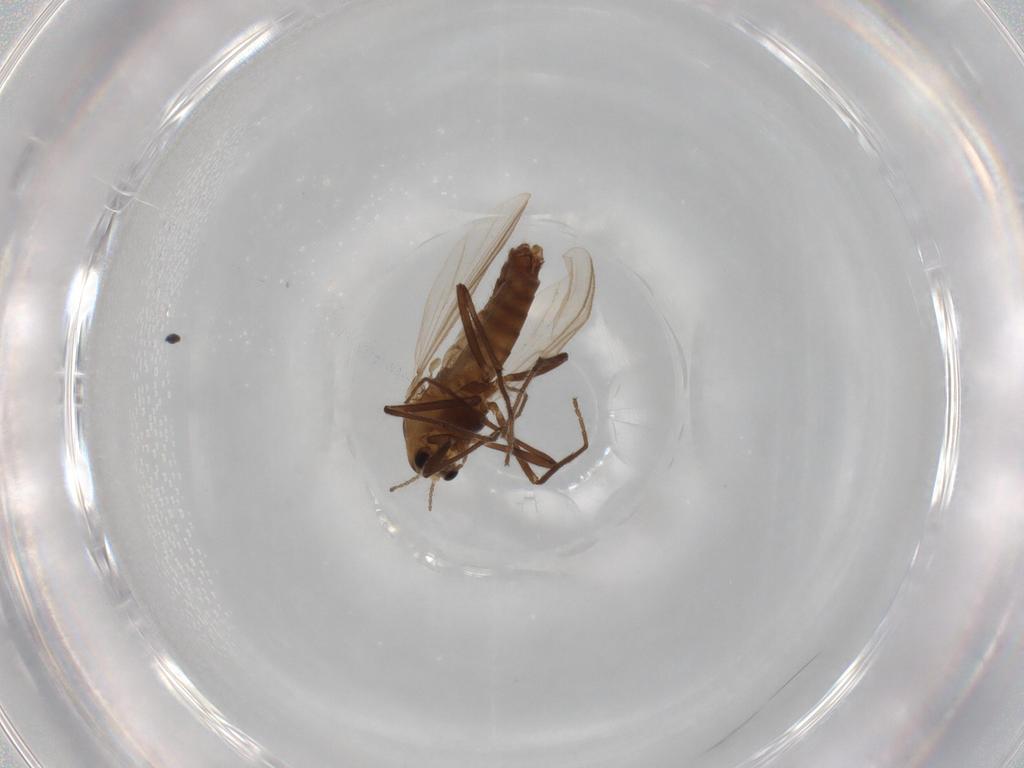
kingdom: Animalia
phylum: Arthropoda
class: Insecta
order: Diptera
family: Chironomidae
